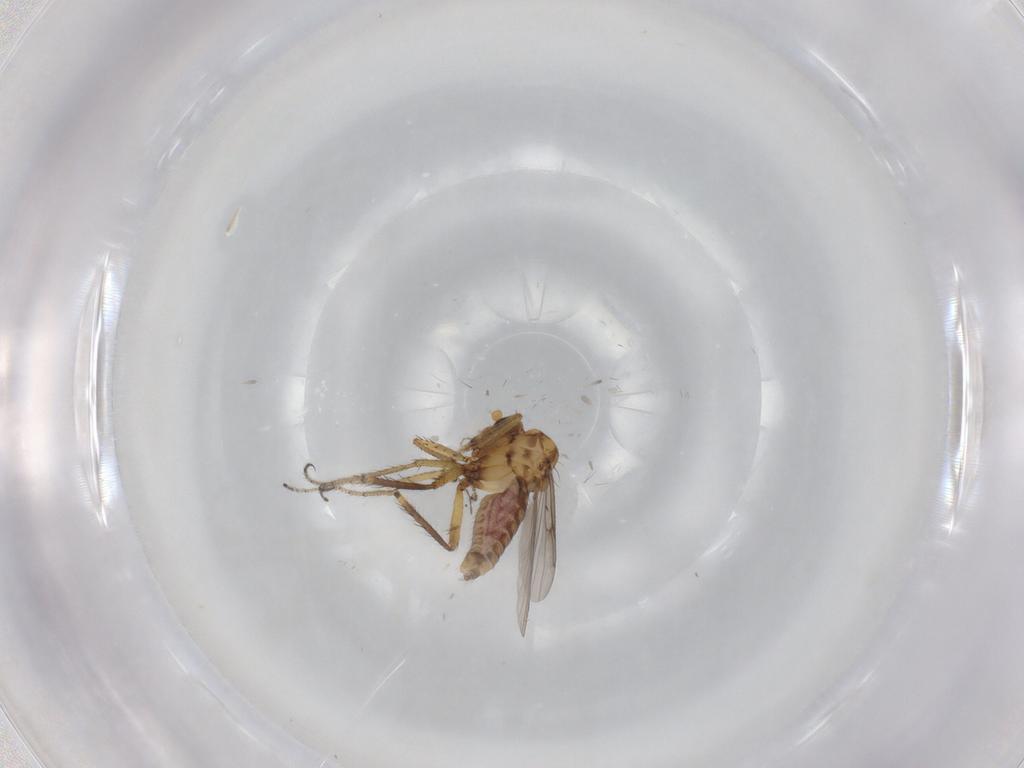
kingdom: Animalia
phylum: Arthropoda
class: Insecta
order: Diptera
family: Ceratopogonidae
